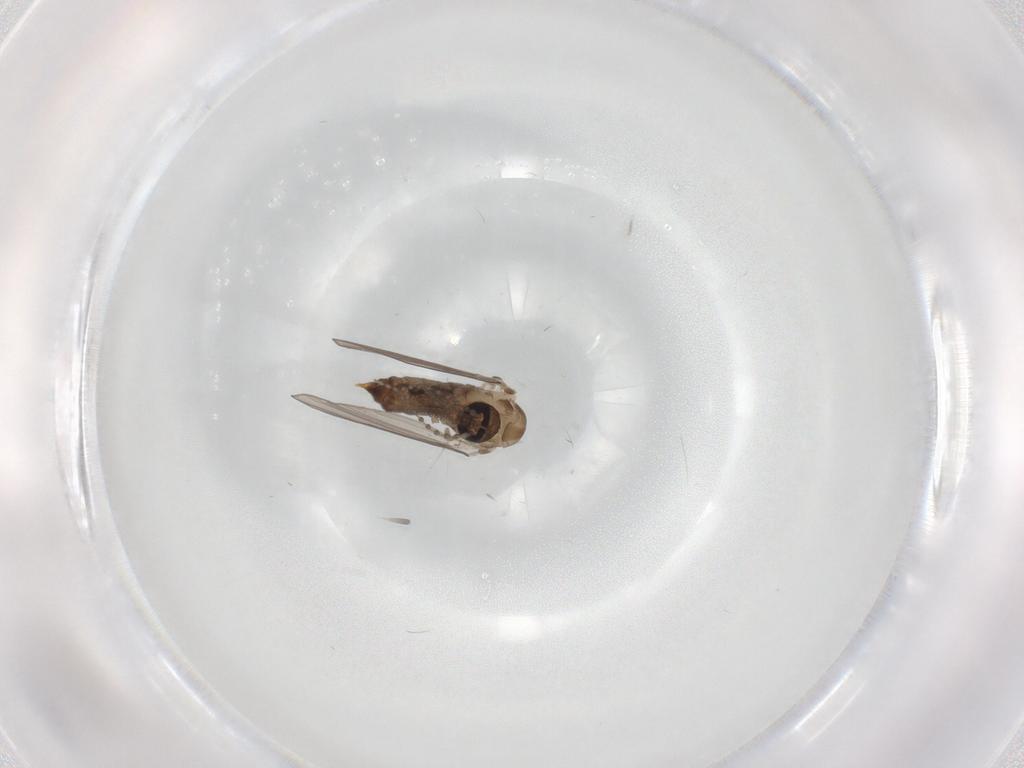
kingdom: Animalia
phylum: Arthropoda
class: Insecta
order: Diptera
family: Psychodidae
